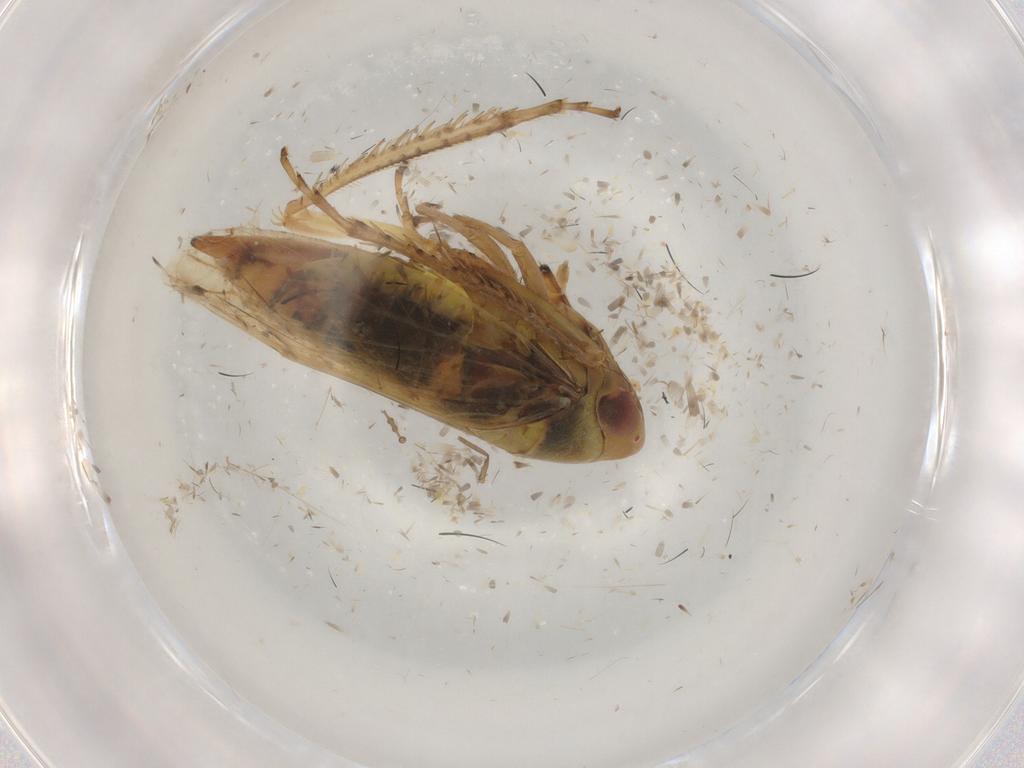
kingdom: Animalia
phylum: Arthropoda
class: Insecta
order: Hemiptera
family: Cicadellidae
